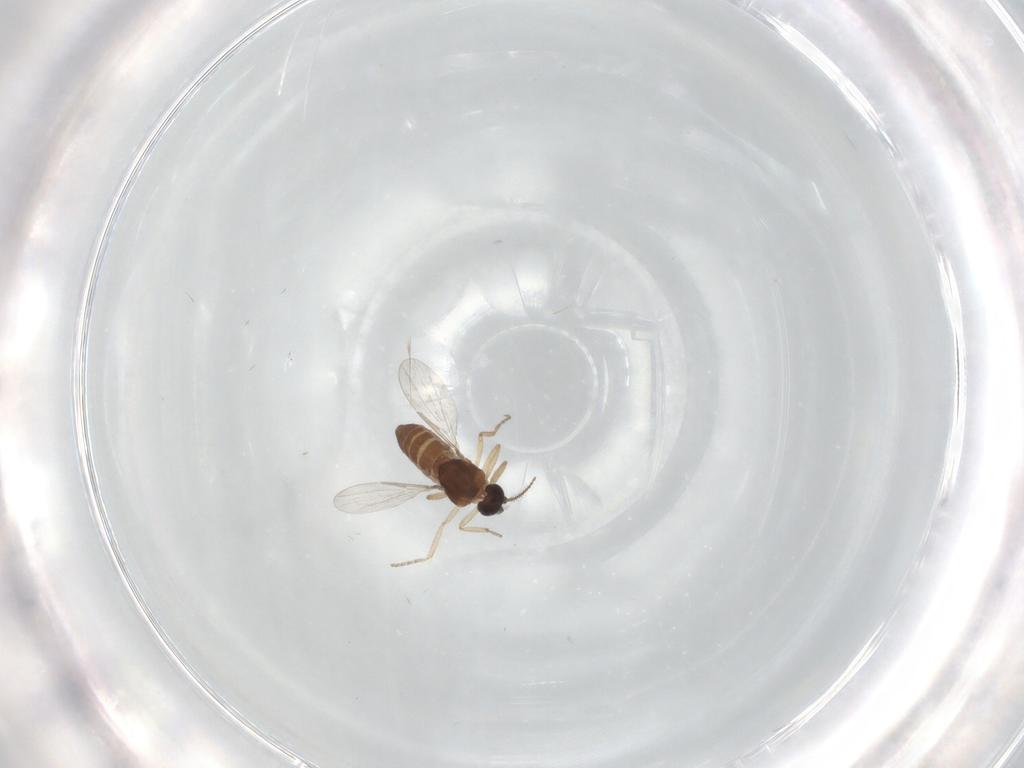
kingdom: Animalia
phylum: Arthropoda
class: Insecta
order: Diptera
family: Ceratopogonidae
